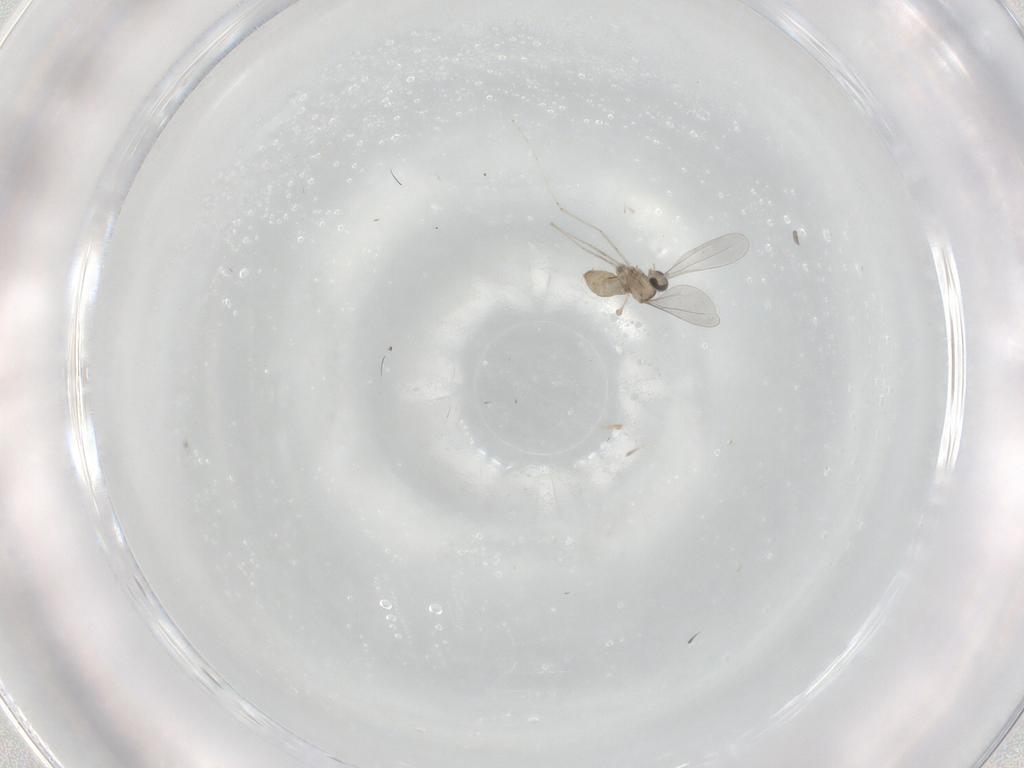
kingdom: Animalia
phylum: Arthropoda
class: Insecta
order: Diptera
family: Cecidomyiidae
